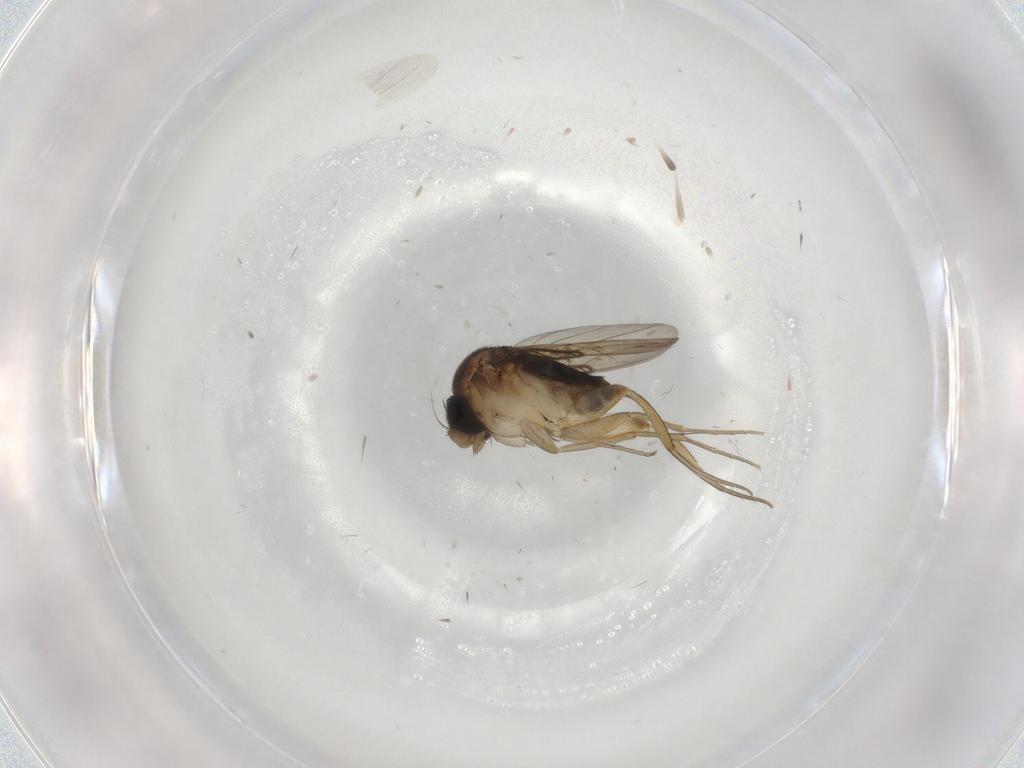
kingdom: Animalia
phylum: Arthropoda
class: Insecta
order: Diptera
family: Phoridae
